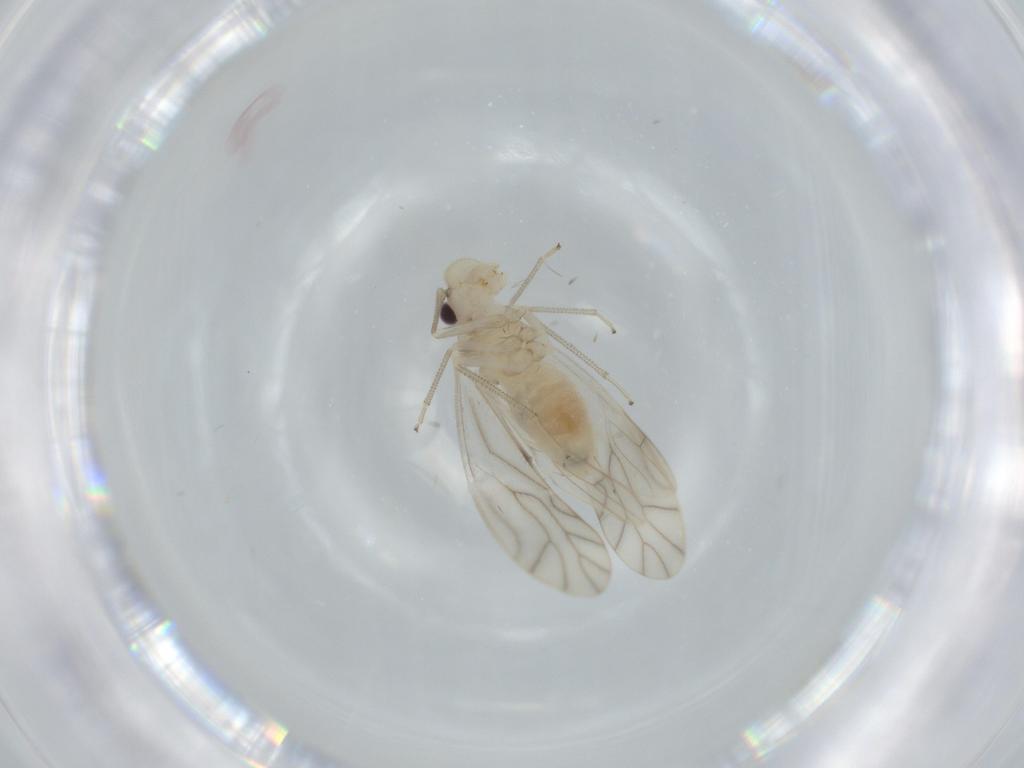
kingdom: Animalia
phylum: Arthropoda
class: Insecta
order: Psocodea
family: Caeciliusidae
